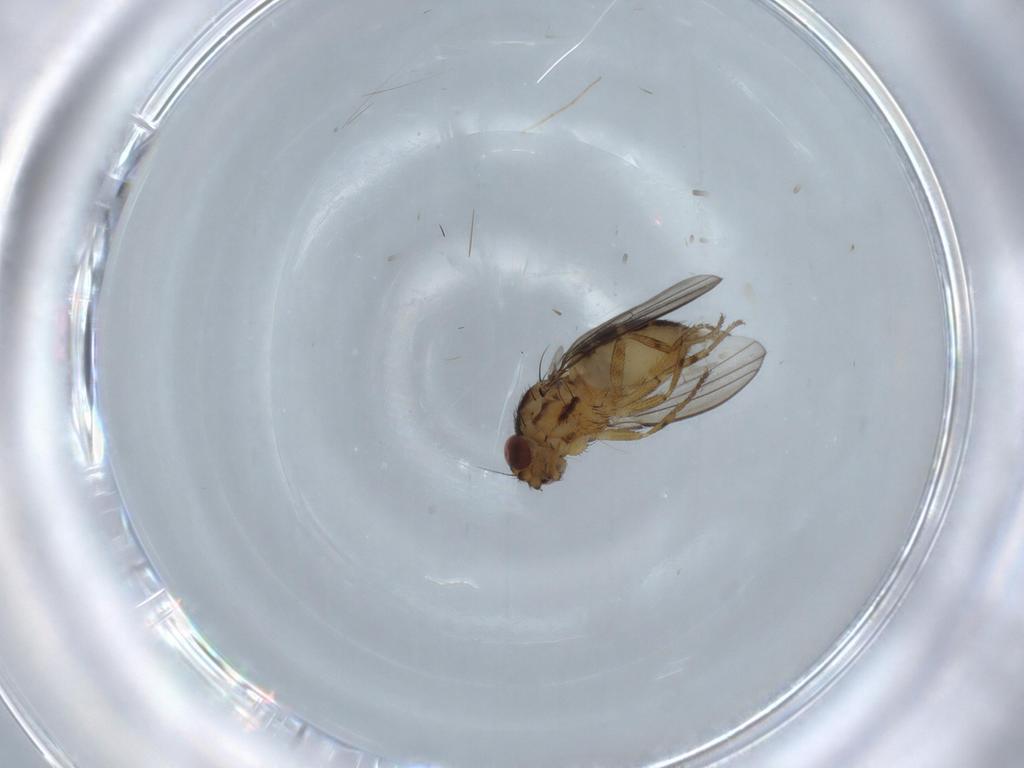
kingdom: Animalia
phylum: Arthropoda
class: Insecta
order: Diptera
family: Chloropidae
